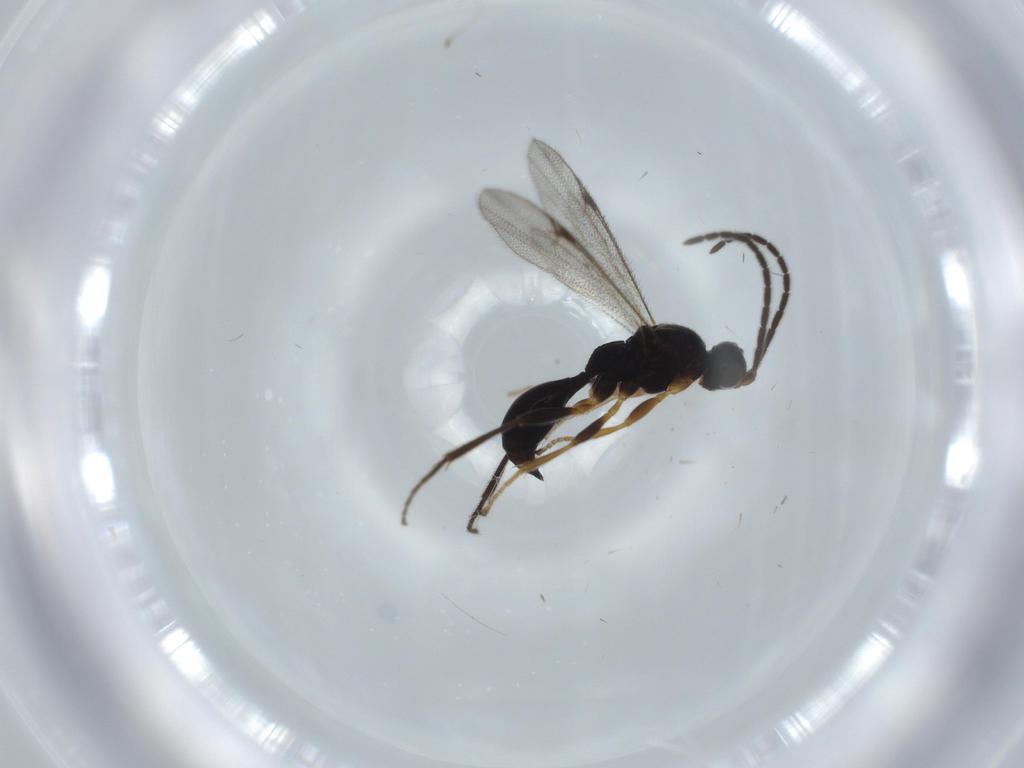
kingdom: Animalia
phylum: Arthropoda
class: Insecta
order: Hymenoptera
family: Proctotrupidae
